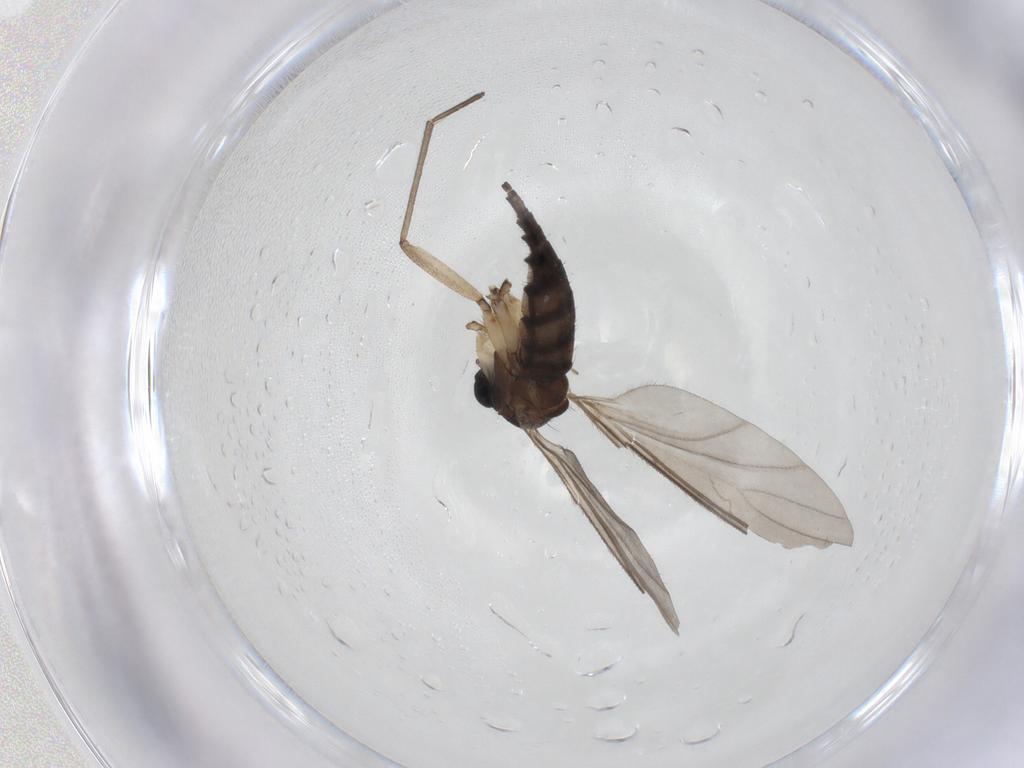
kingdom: Animalia
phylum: Arthropoda
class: Insecta
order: Diptera
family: Sciaridae
